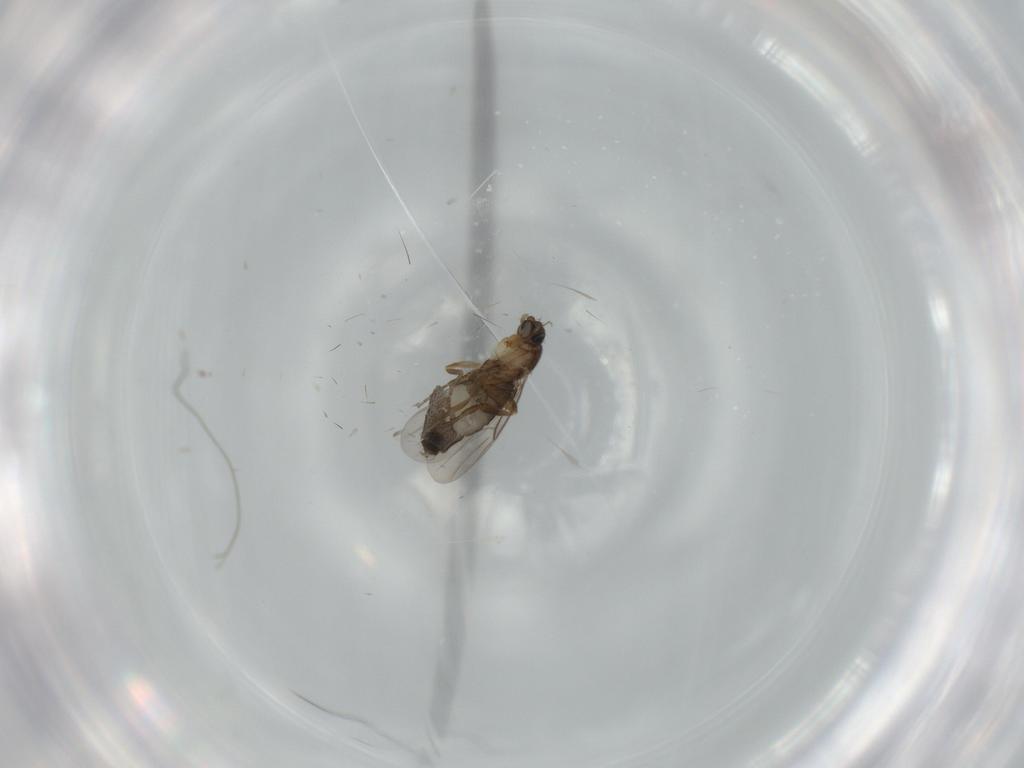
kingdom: Animalia
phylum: Arthropoda
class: Insecta
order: Diptera
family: Phoridae
